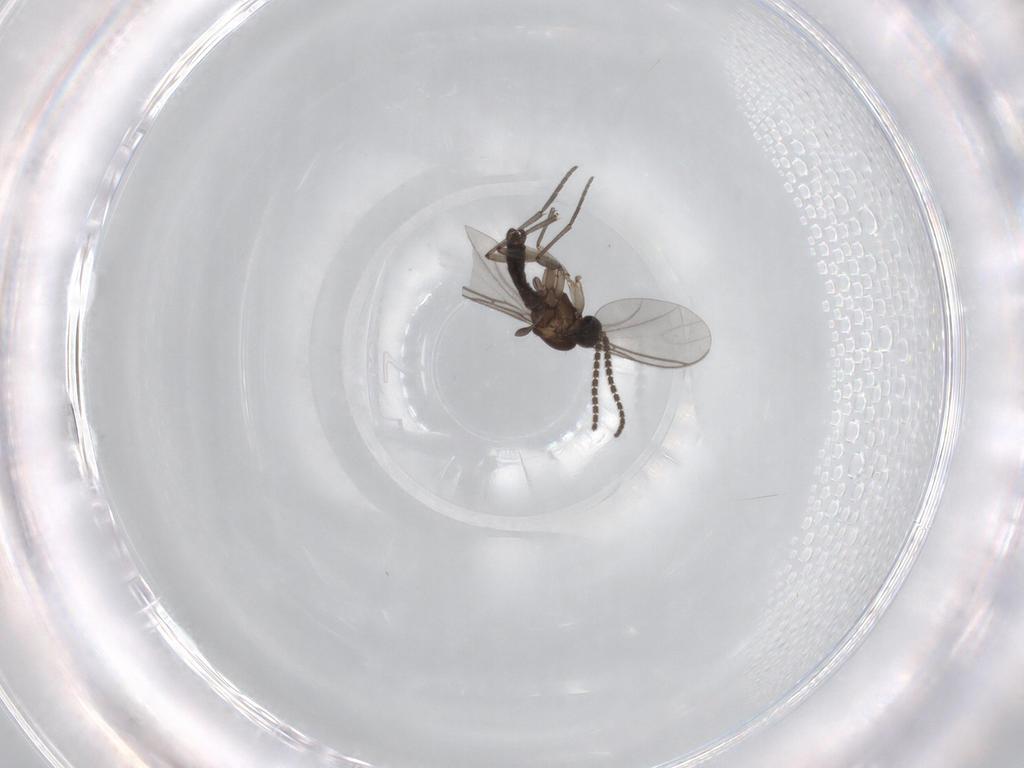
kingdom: Animalia
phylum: Arthropoda
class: Insecta
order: Diptera
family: Sciaridae
